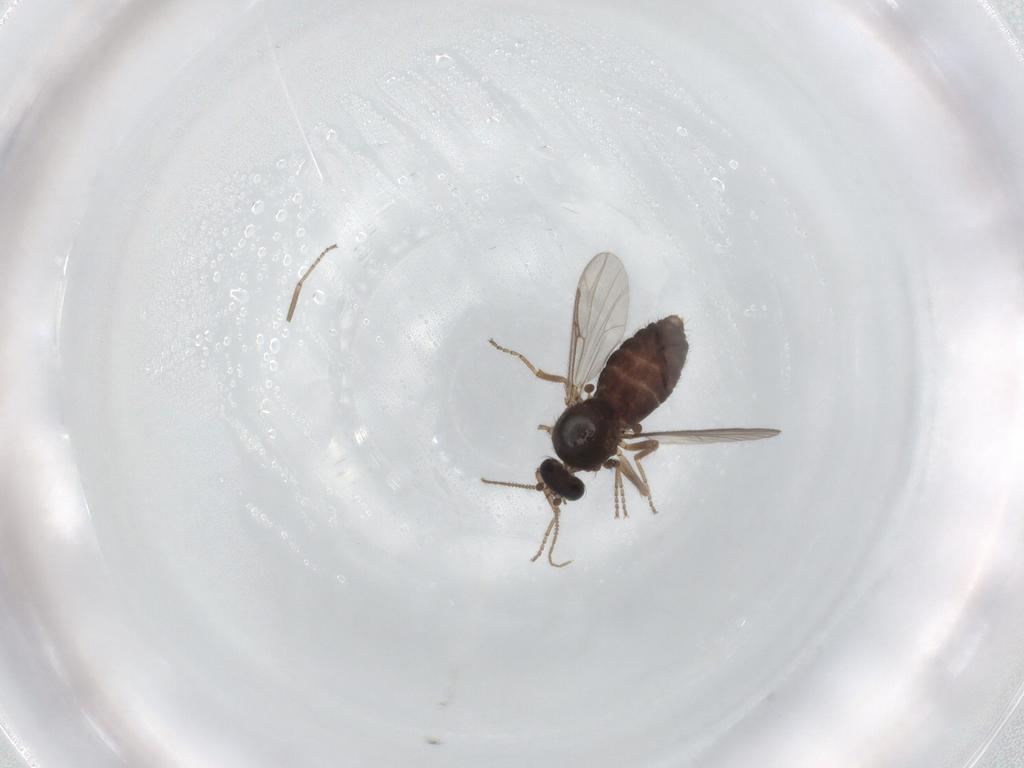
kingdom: Animalia
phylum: Arthropoda
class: Insecta
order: Diptera
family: Ceratopogonidae
